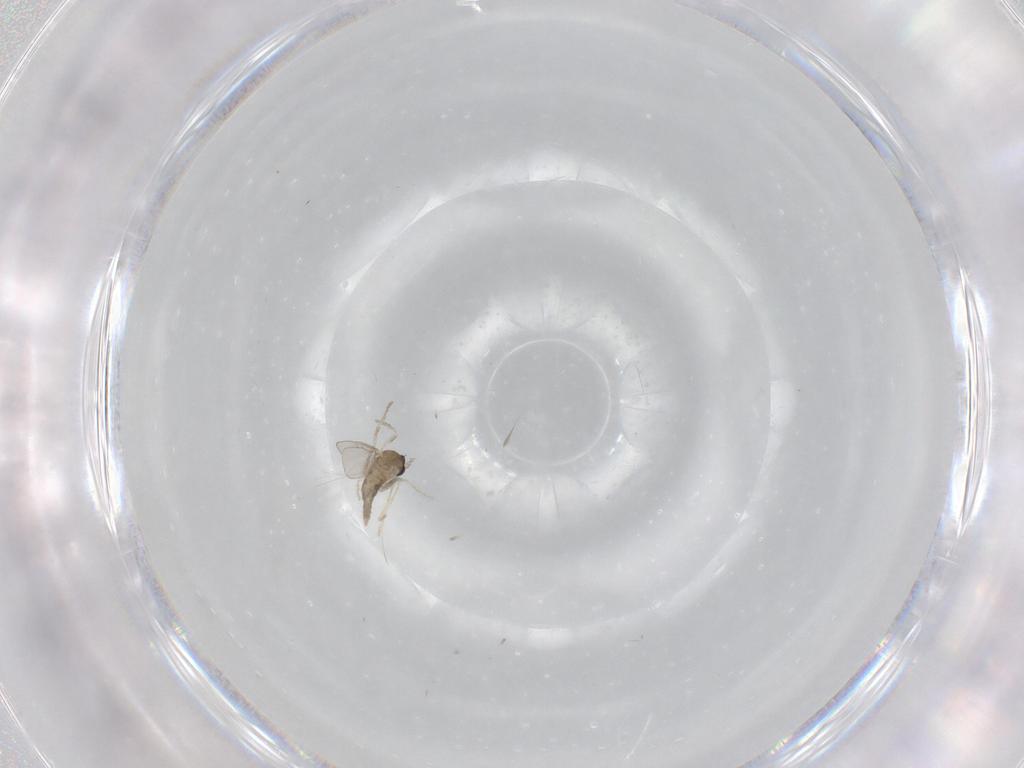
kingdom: Animalia
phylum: Arthropoda
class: Insecta
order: Diptera
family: Cecidomyiidae
